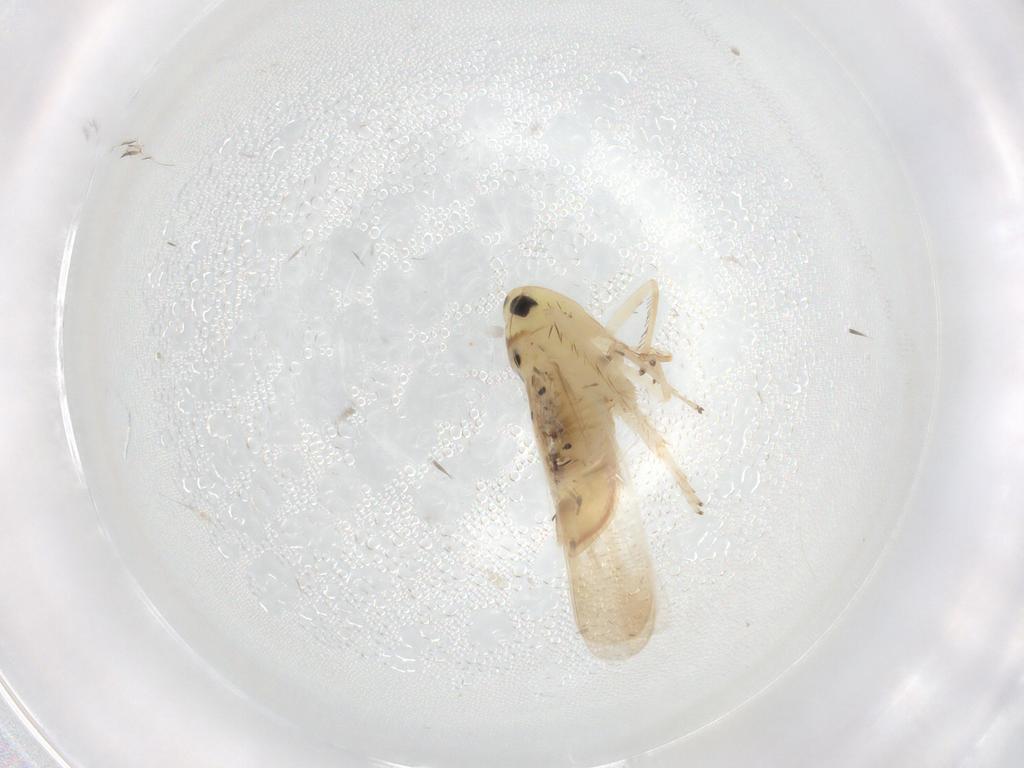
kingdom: Animalia
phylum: Arthropoda
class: Insecta
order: Hemiptera
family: Cicadellidae
